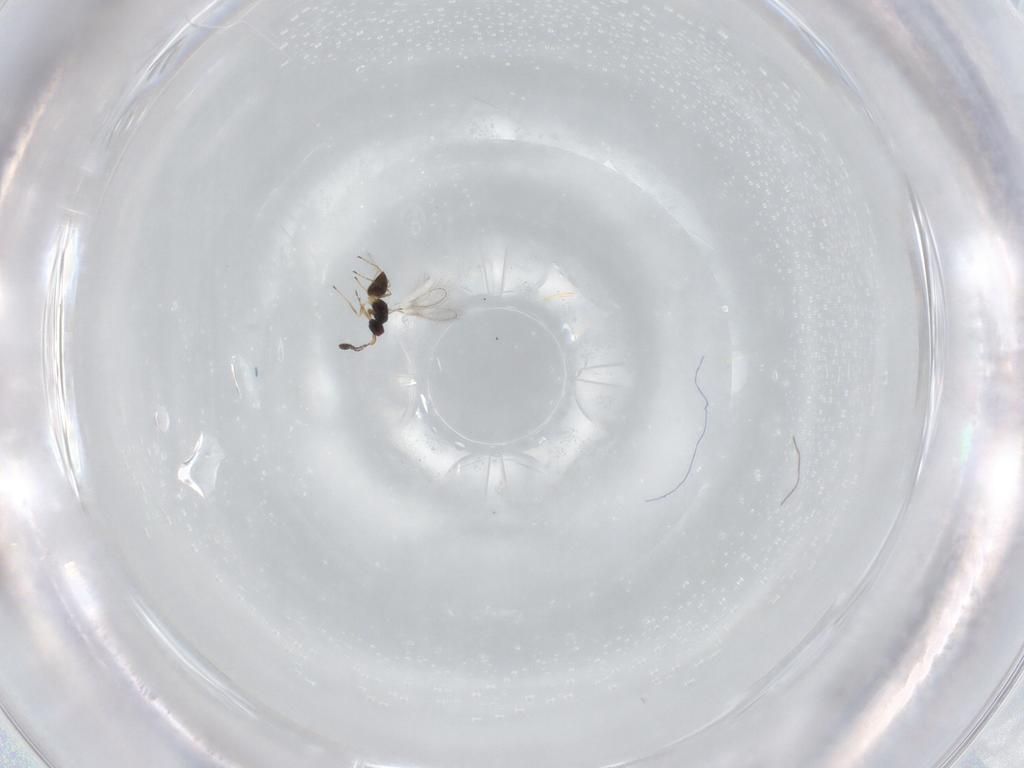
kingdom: Animalia
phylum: Arthropoda
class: Insecta
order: Hymenoptera
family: Mymaridae
